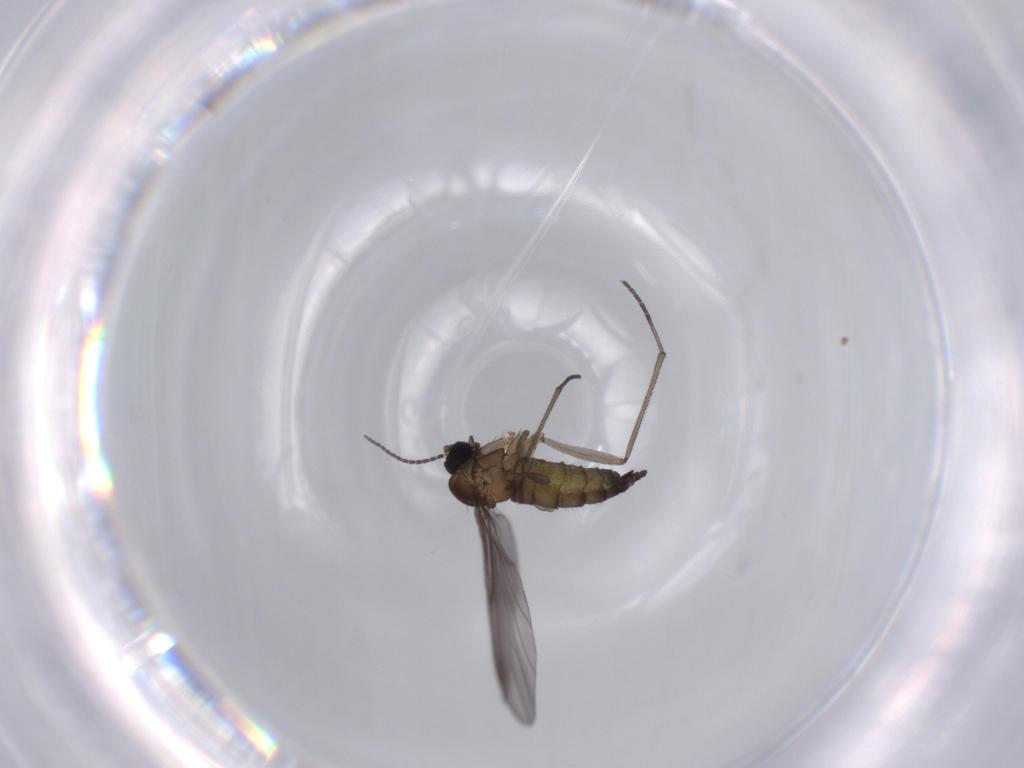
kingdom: Animalia
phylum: Arthropoda
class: Insecta
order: Diptera
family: Sciaridae
